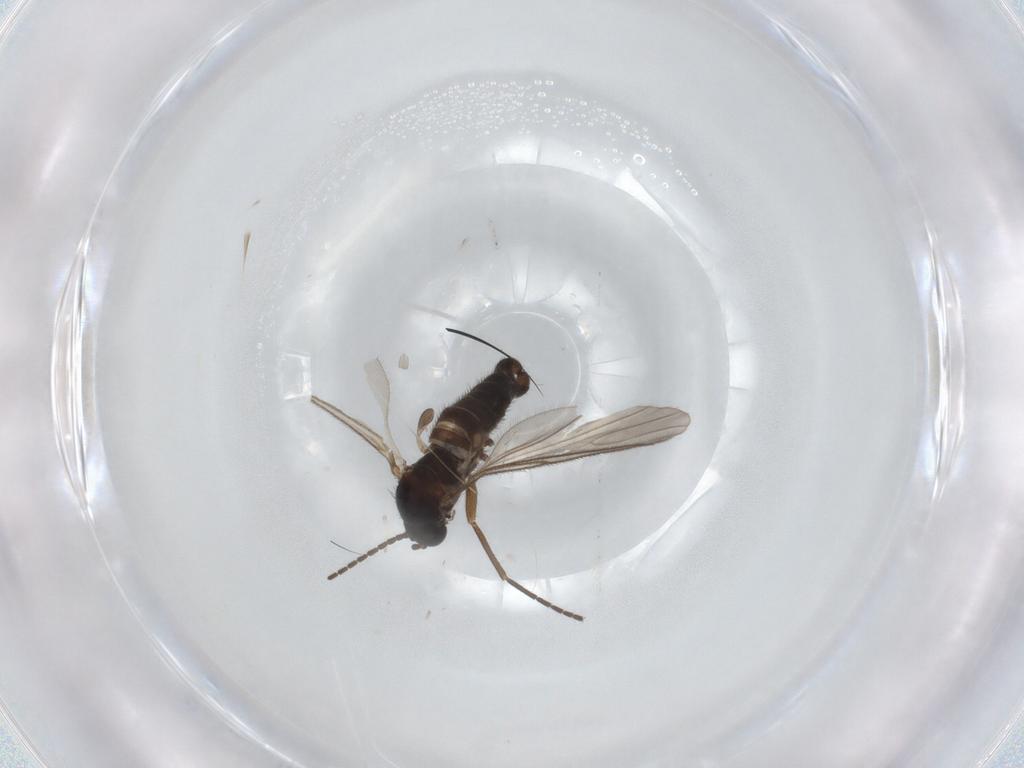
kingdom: Animalia
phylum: Arthropoda
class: Insecta
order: Diptera
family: Sciaridae
